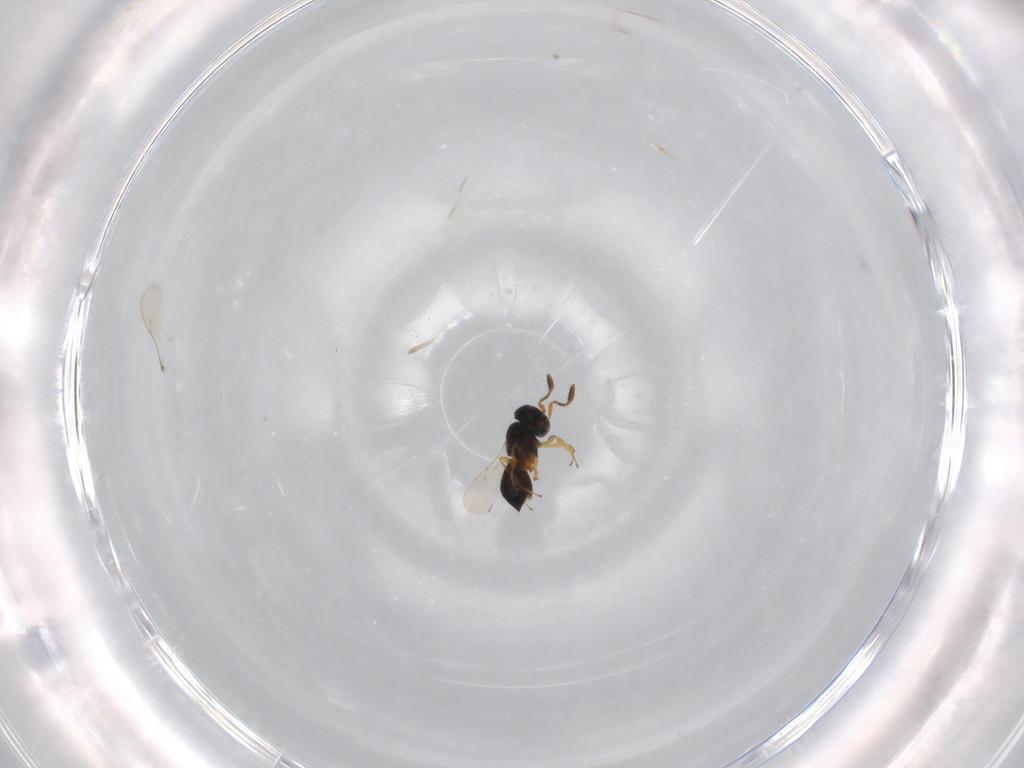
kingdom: Animalia
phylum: Arthropoda
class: Insecta
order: Hymenoptera
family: Scelionidae
